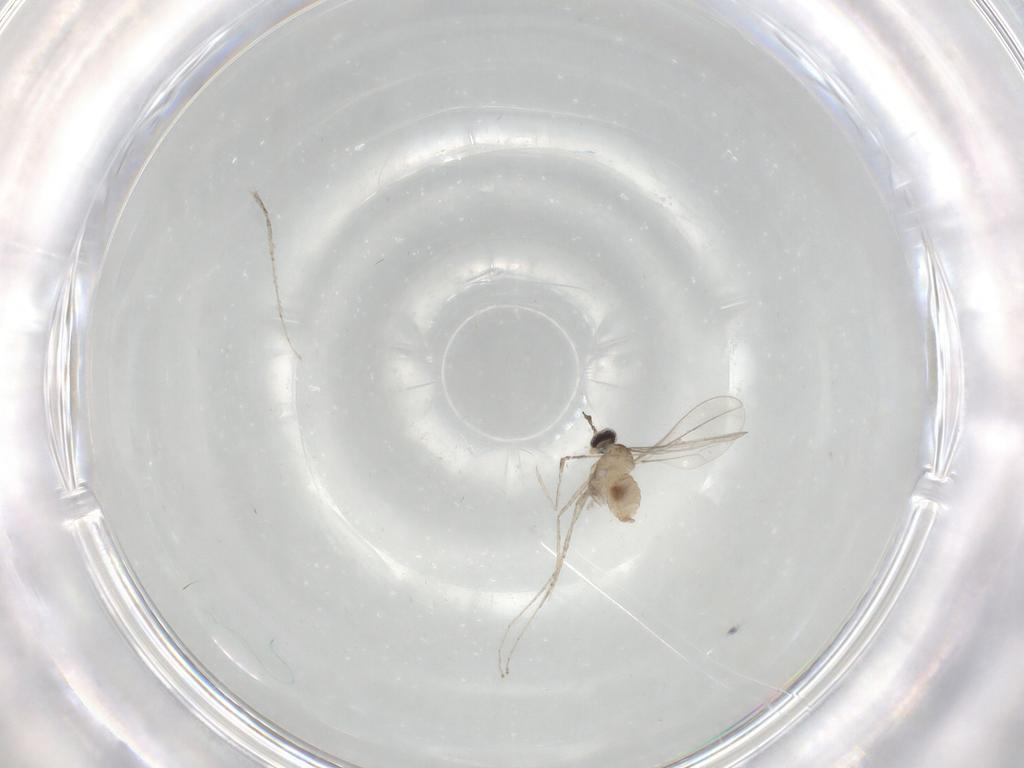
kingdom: Animalia
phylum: Arthropoda
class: Insecta
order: Diptera
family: Cecidomyiidae
